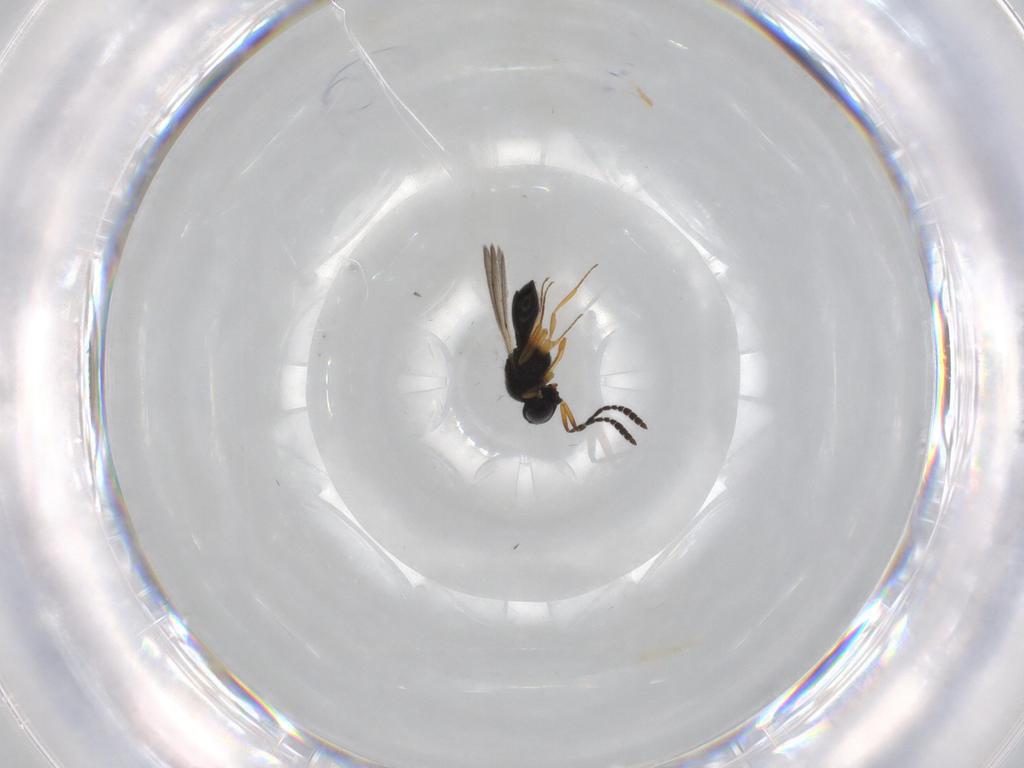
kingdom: Animalia
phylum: Arthropoda
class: Insecta
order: Hymenoptera
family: Scelionidae
